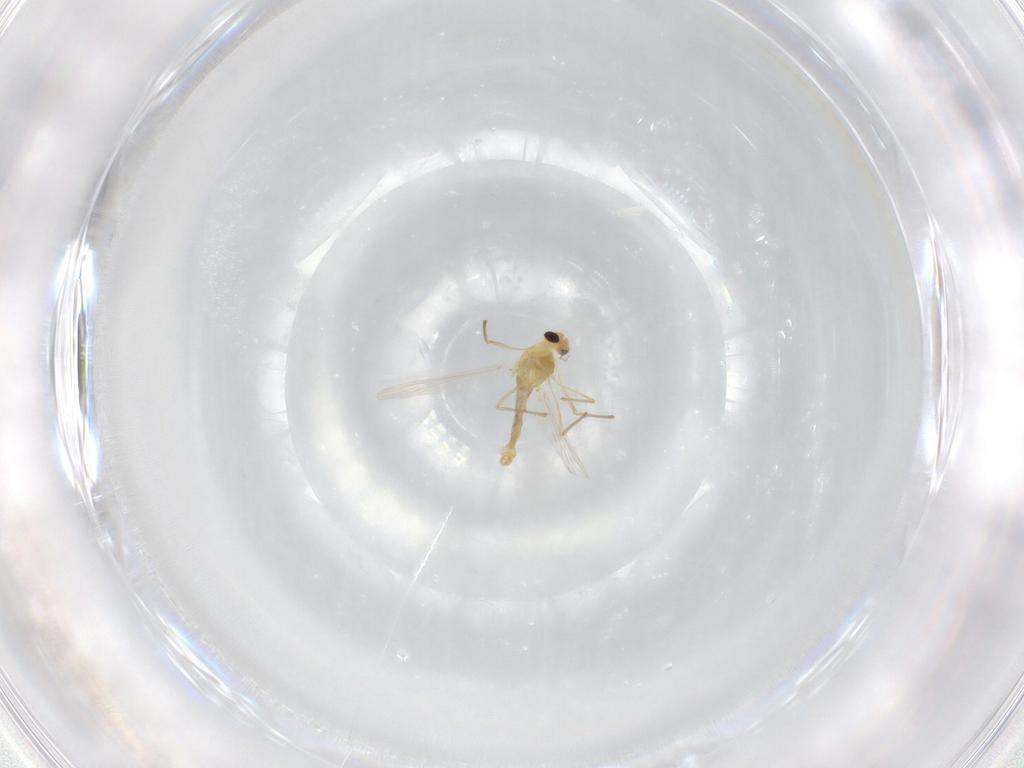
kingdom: Animalia
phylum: Arthropoda
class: Insecta
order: Diptera
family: Chironomidae
